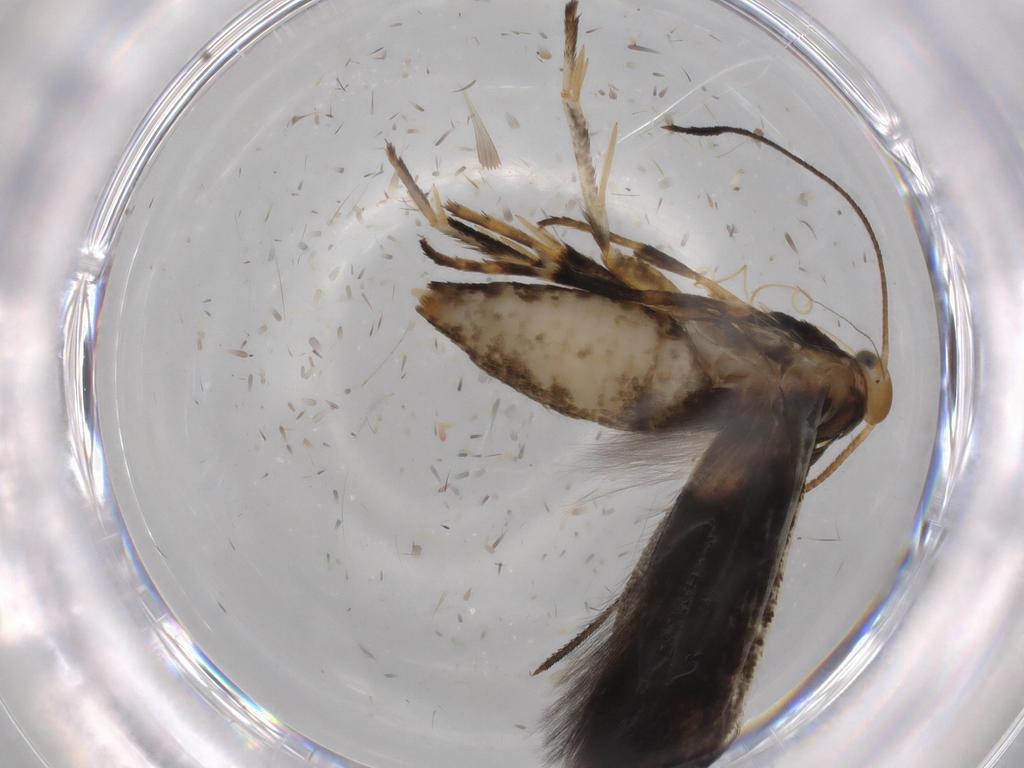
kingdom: Animalia
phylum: Arthropoda
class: Insecta
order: Lepidoptera
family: Heliodinidae
